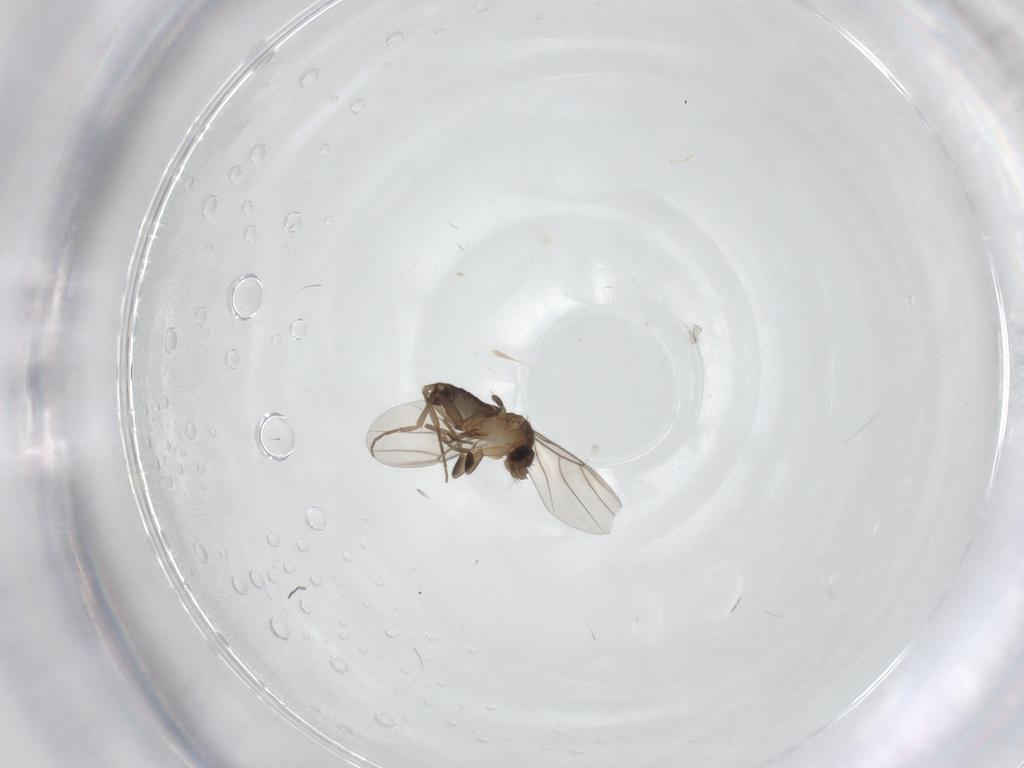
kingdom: Animalia
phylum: Arthropoda
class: Insecta
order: Diptera
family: Phoridae
